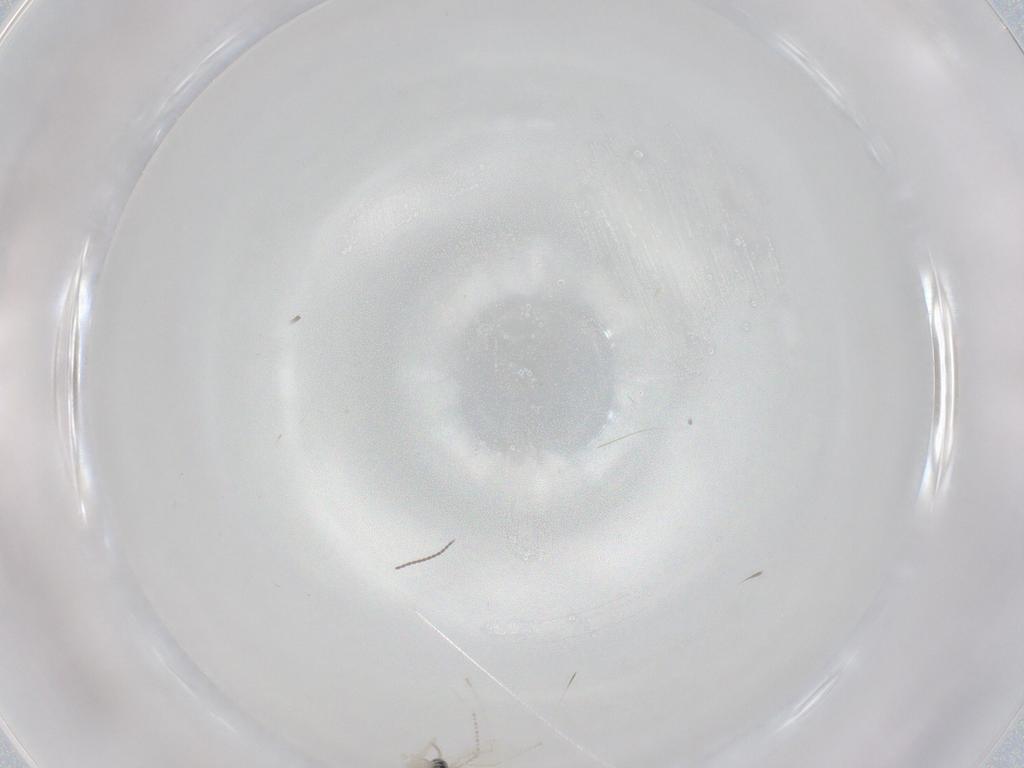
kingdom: Animalia
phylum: Arthropoda
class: Insecta
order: Diptera
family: Cecidomyiidae
